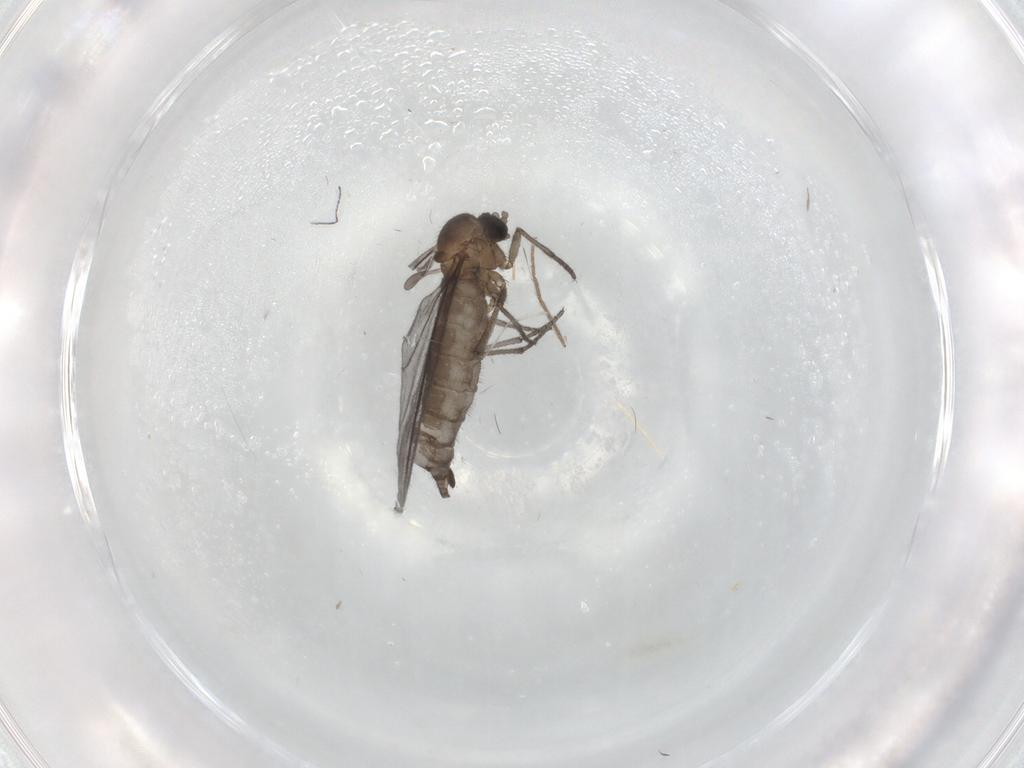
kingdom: Animalia
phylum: Arthropoda
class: Insecta
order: Diptera
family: Sciaridae
